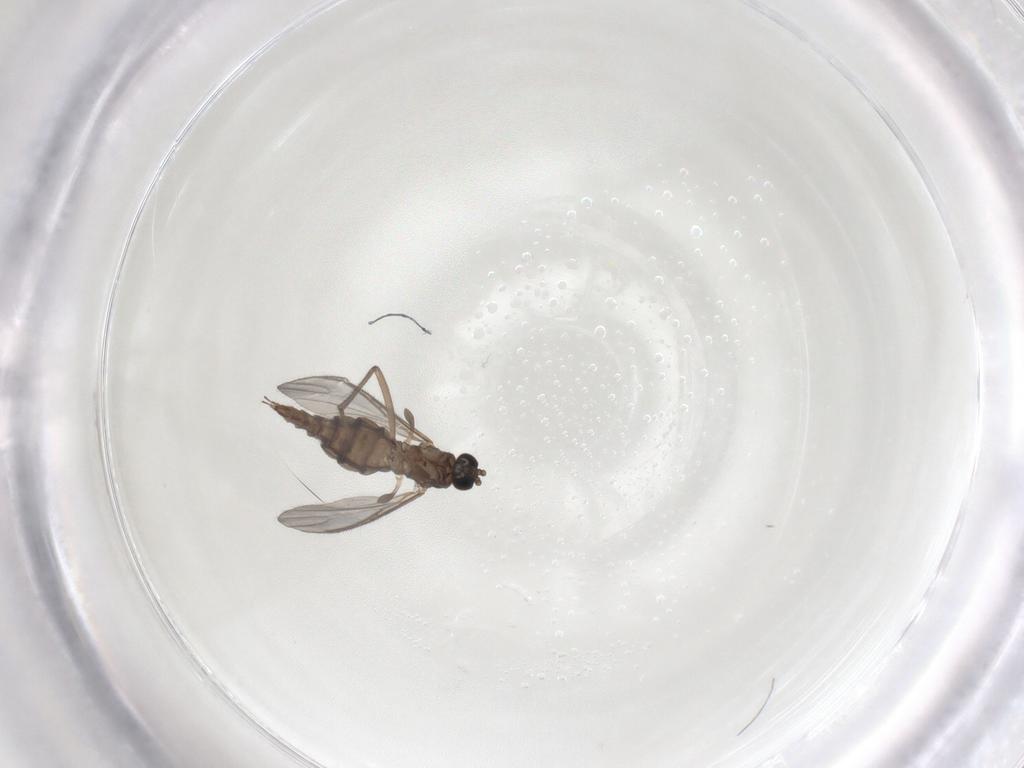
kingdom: Animalia
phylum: Arthropoda
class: Insecta
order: Diptera
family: Sciaridae
